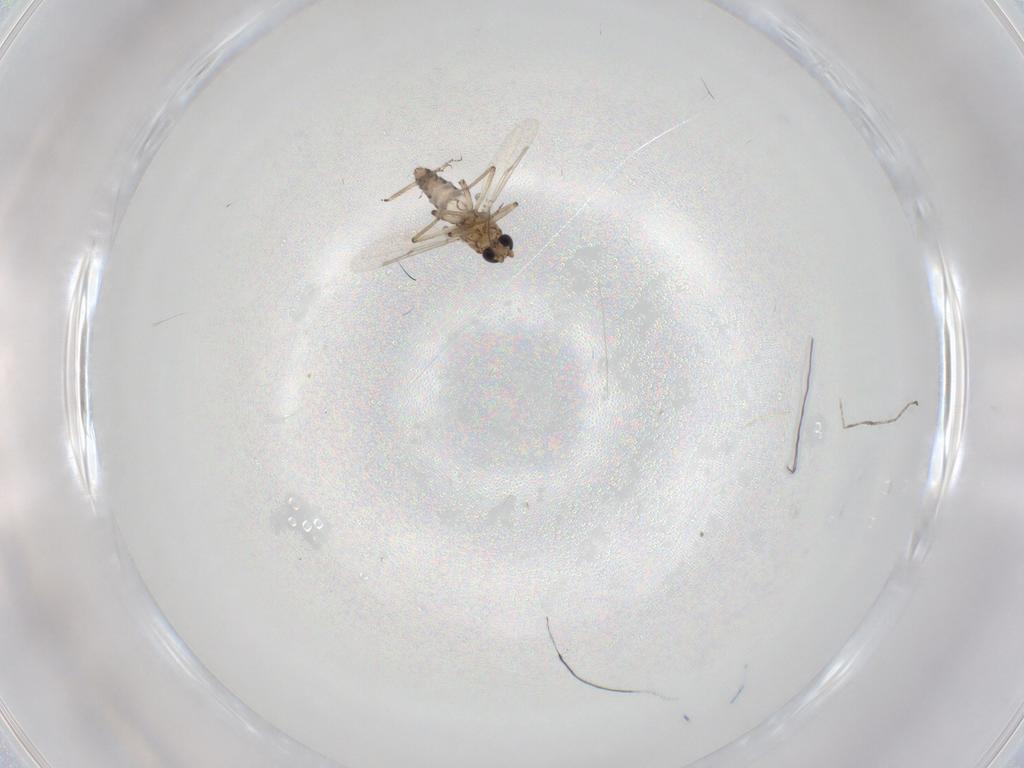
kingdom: Animalia
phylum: Arthropoda
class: Insecta
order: Diptera
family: Ceratopogonidae
